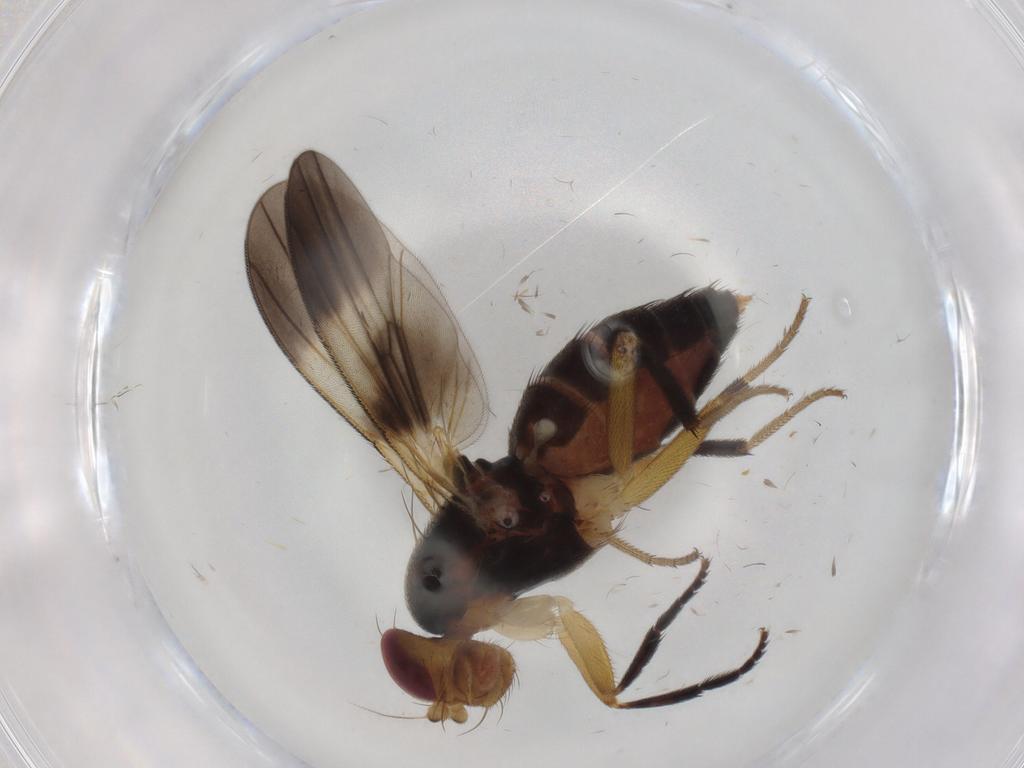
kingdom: Animalia
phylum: Arthropoda
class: Insecta
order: Diptera
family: Clusiidae
